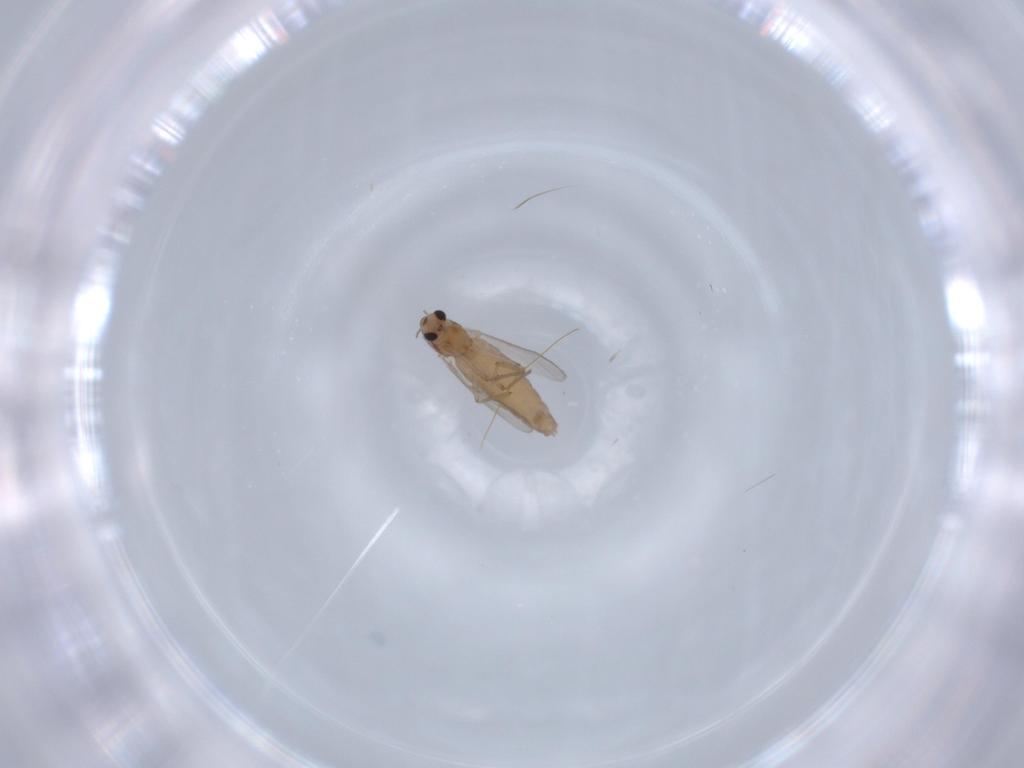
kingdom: Animalia
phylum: Arthropoda
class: Insecta
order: Diptera
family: Chironomidae
